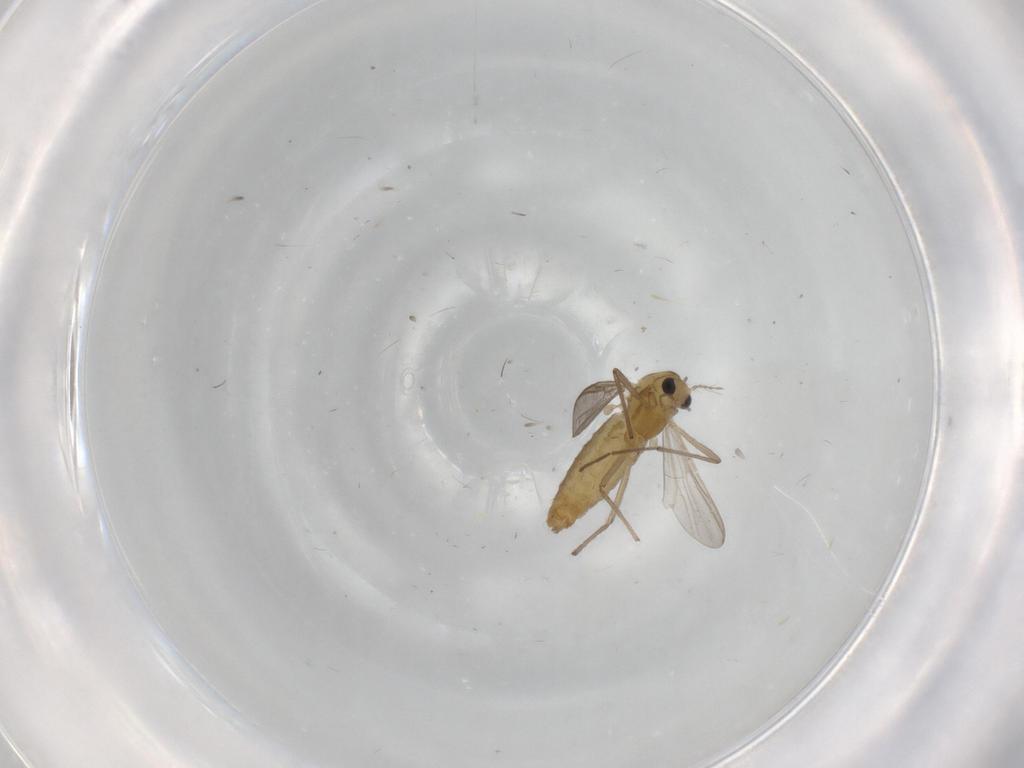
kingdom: Animalia
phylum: Arthropoda
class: Insecta
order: Diptera
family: Chironomidae
